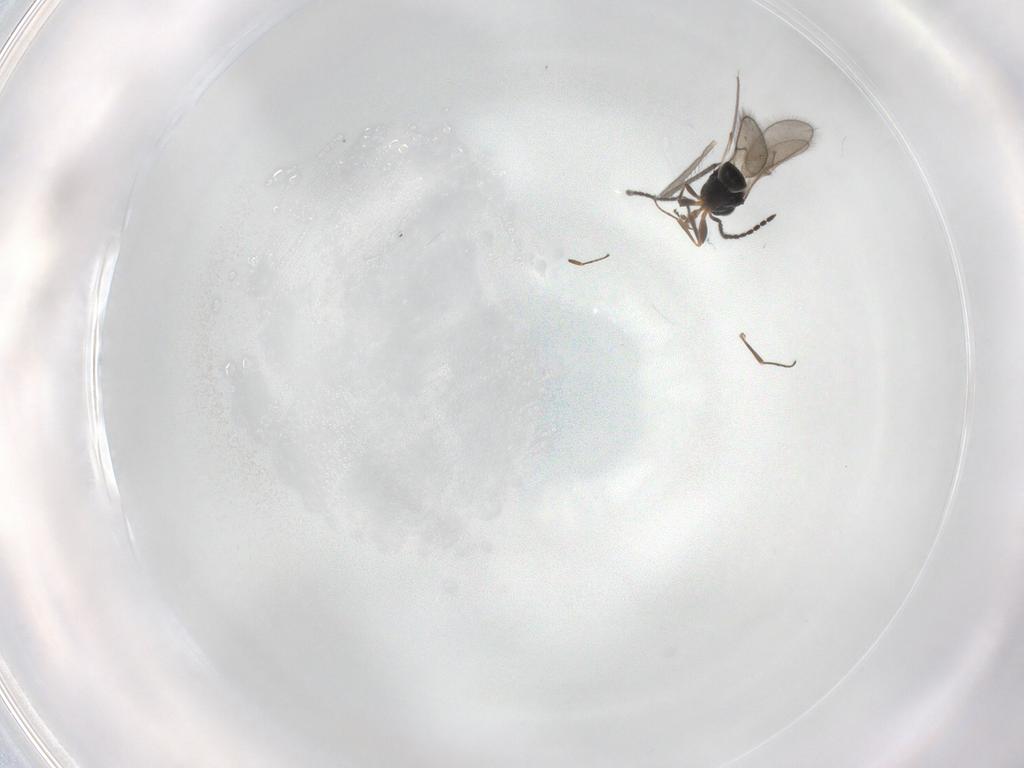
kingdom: Animalia
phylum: Arthropoda
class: Insecta
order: Hymenoptera
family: Scelionidae
